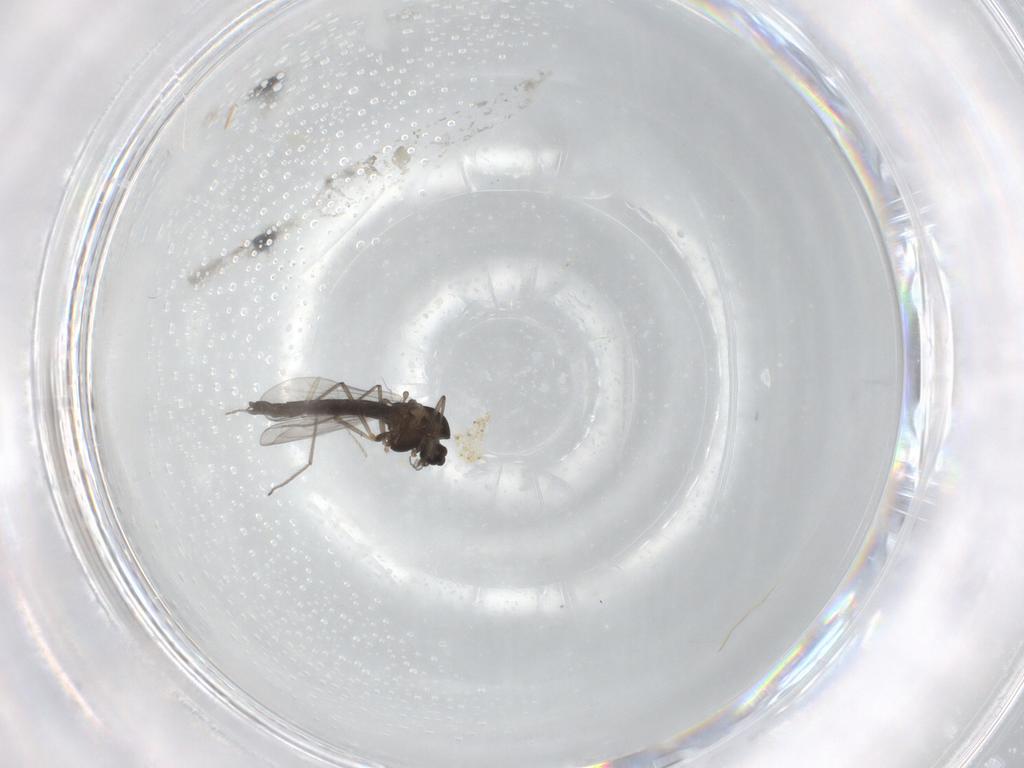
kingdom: Animalia
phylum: Arthropoda
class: Insecta
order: Diptera
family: Chironomidae
